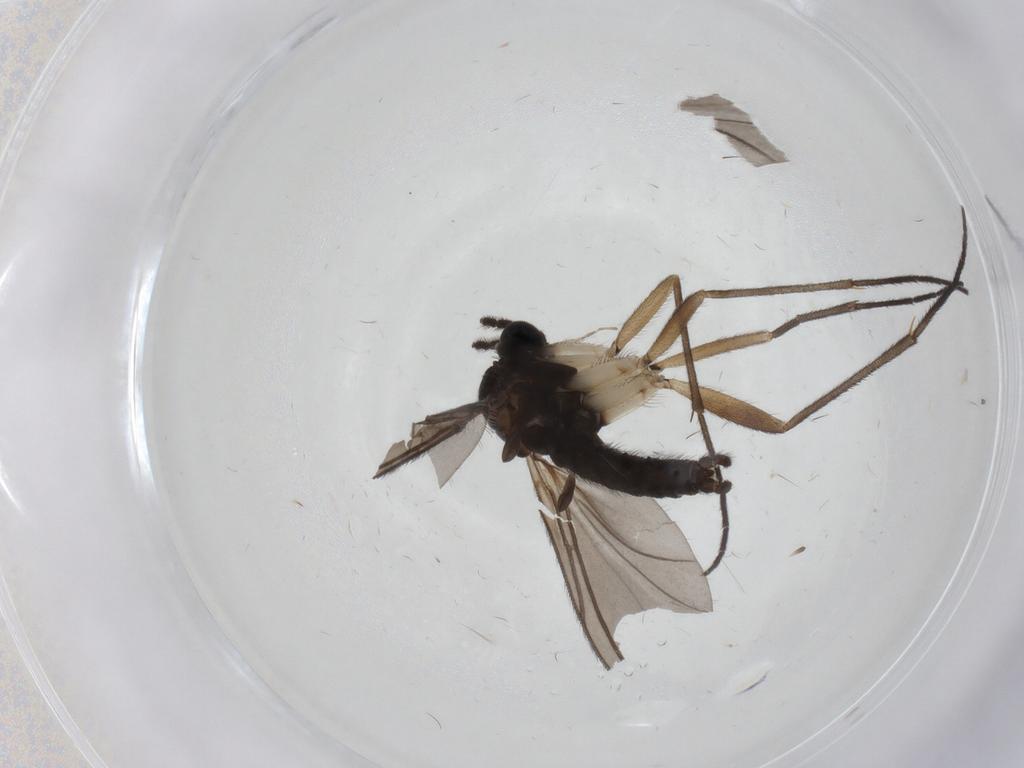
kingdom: Animalia
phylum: Arthropoda
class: Insecta
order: Diptera
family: Sciaridae
